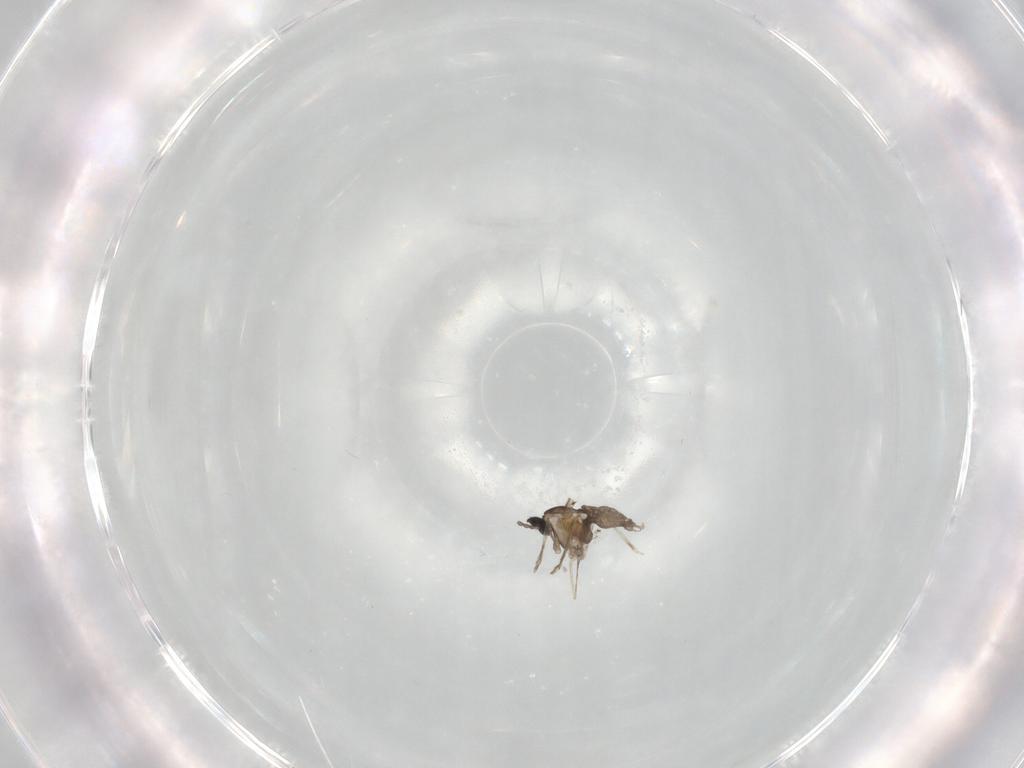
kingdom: Animalia
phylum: Arthropoda
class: Insecta
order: Diptera
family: Cecidomyiidae
